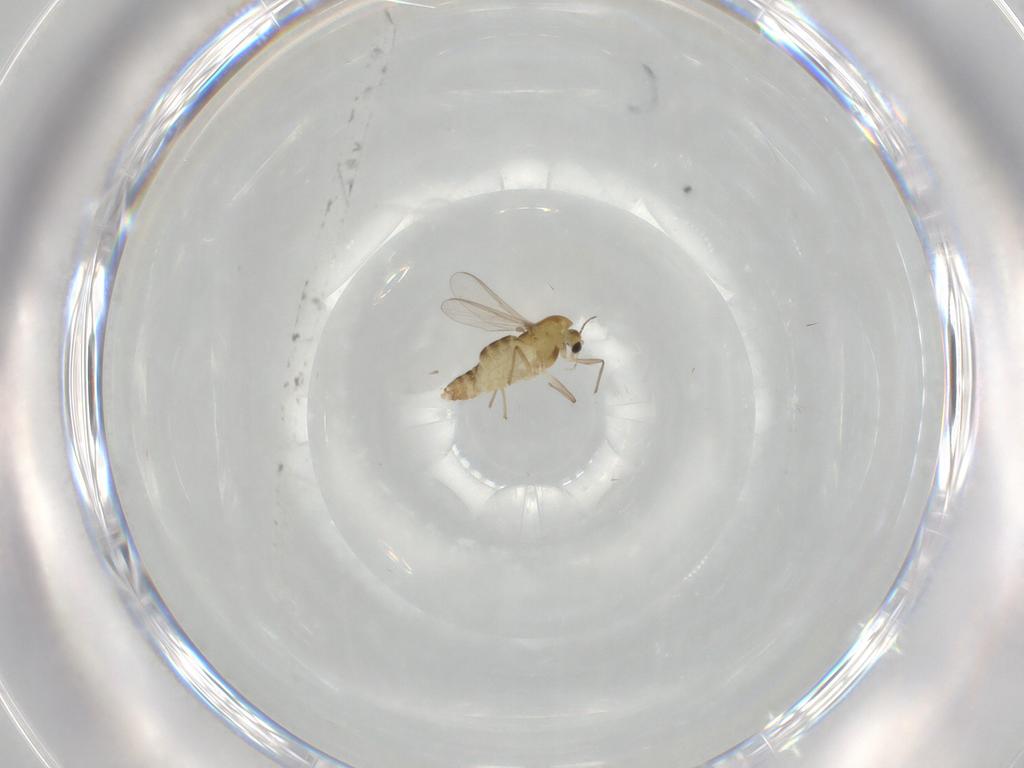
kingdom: Animalia
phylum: Arthropoda
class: Insecta
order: Diptera
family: Chironomidae
